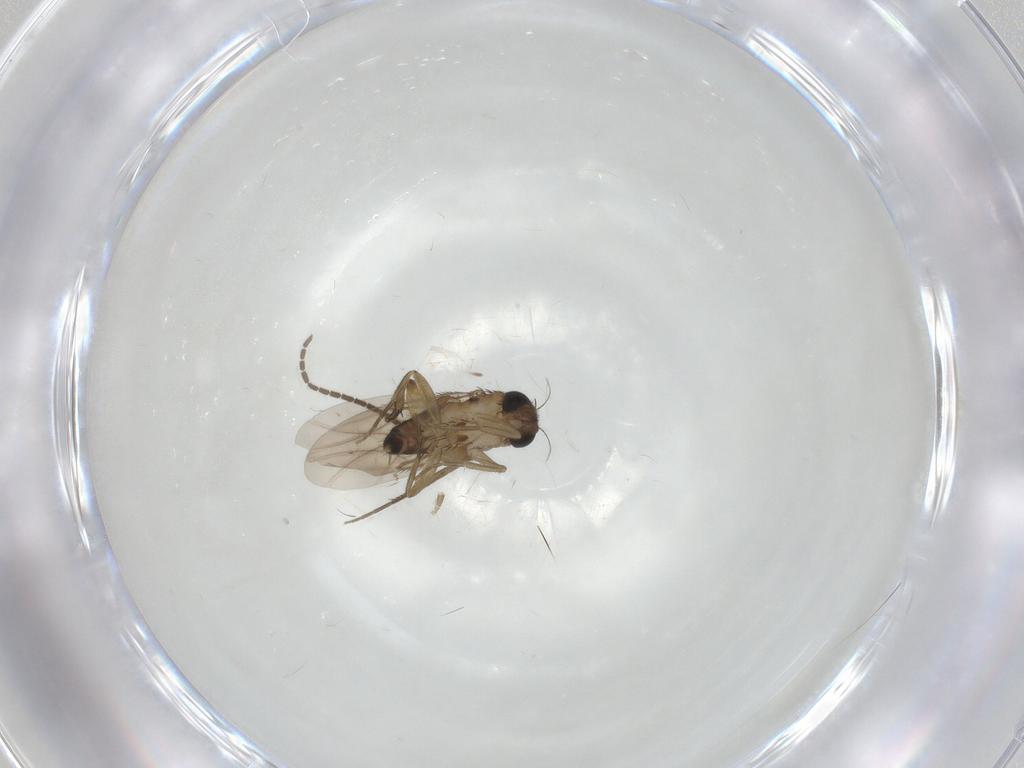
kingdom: Animalia
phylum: Arthropoda
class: Insecta
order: Diptera
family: Phoridae
